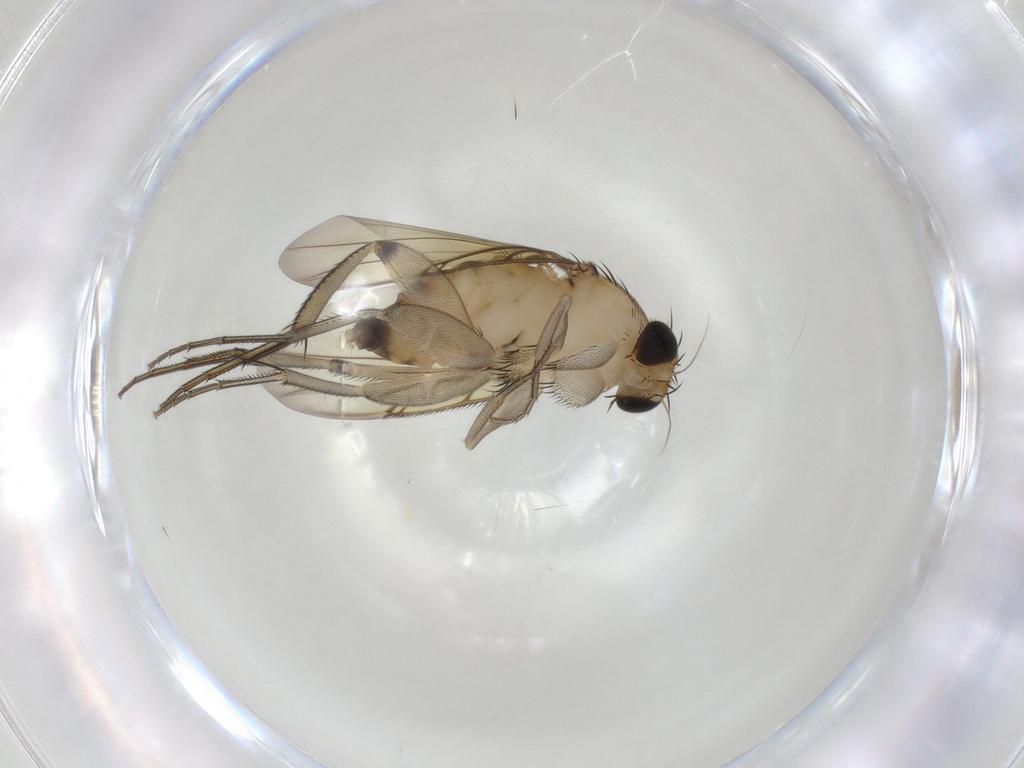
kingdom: Animalia
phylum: Arthropoda
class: Insecta
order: Diptera
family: Phoridae
